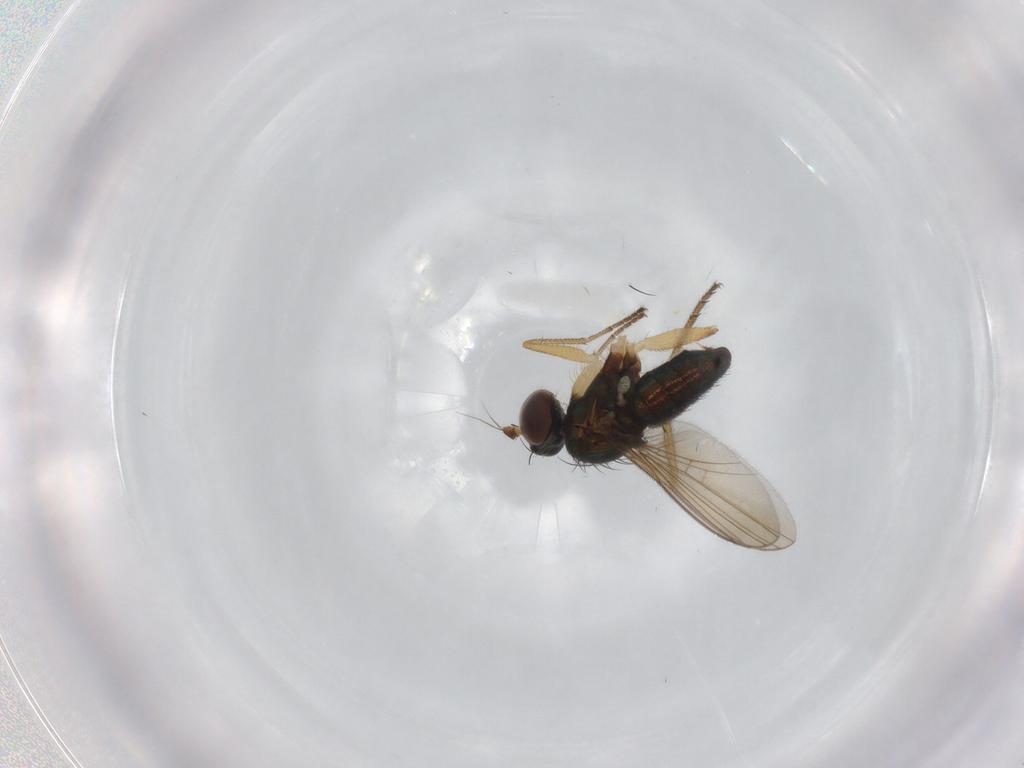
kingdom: Animalia
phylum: Arthropoda
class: Insecta
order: Diptera
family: Dolichopodidae
